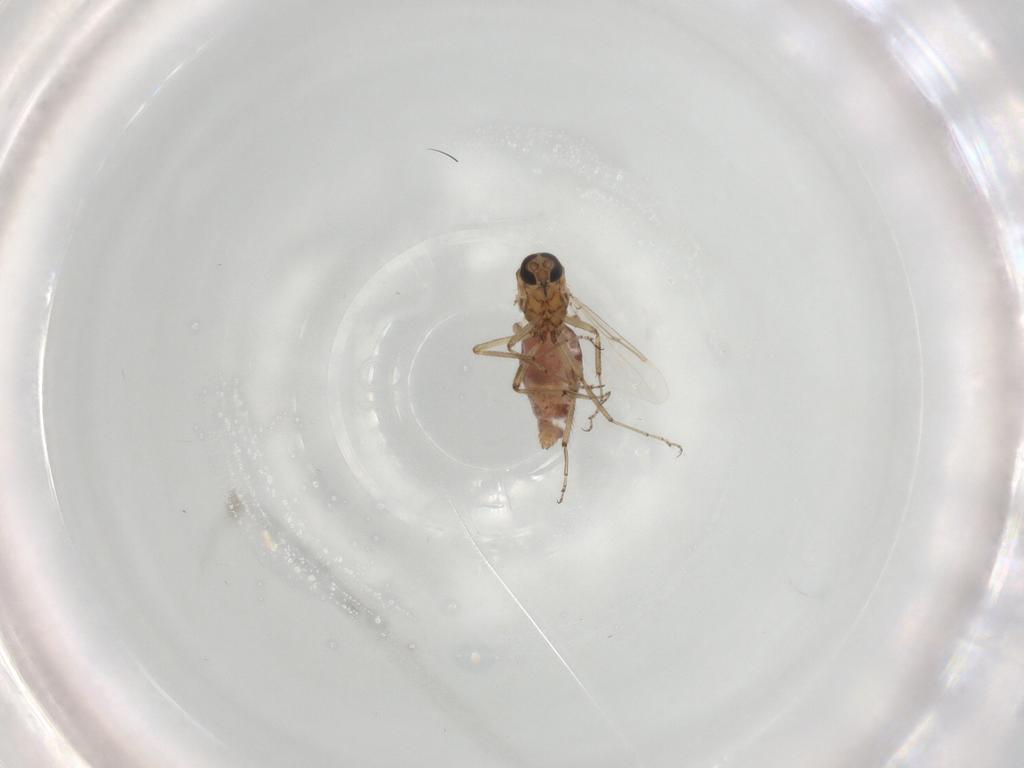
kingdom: Animalia
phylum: Arthropoda
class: Insecta
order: Diptera
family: Ceratopogonidae
